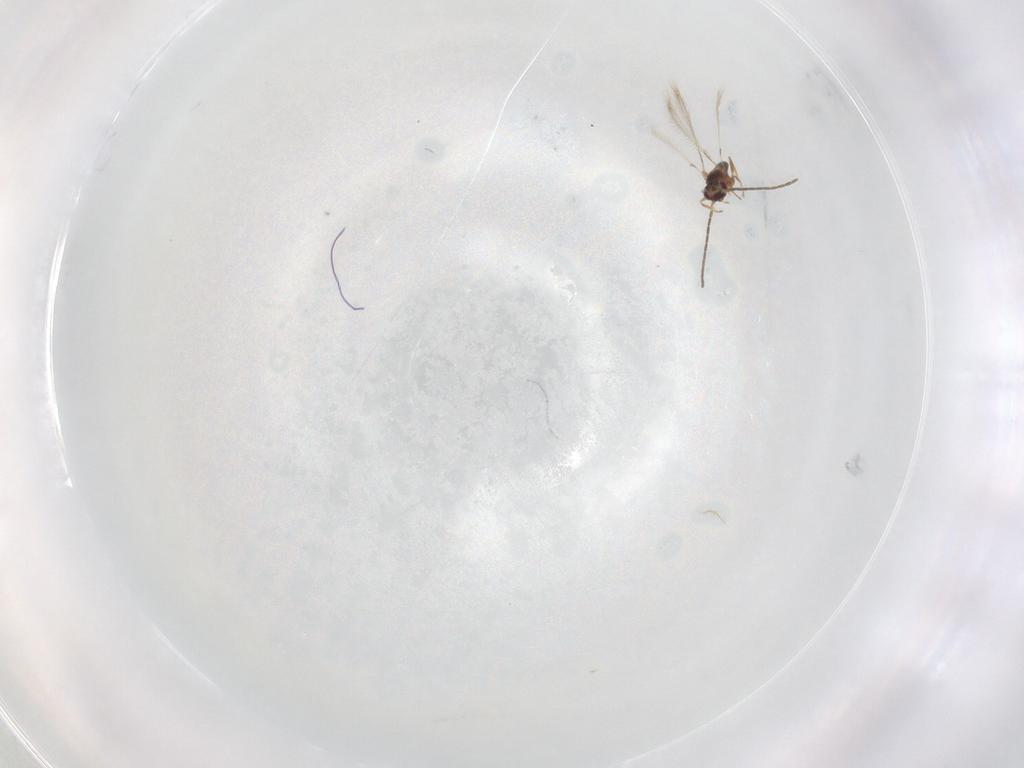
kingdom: Animalia
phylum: Arthropoda
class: Insecta
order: Hymenoptera
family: Mymaridae
